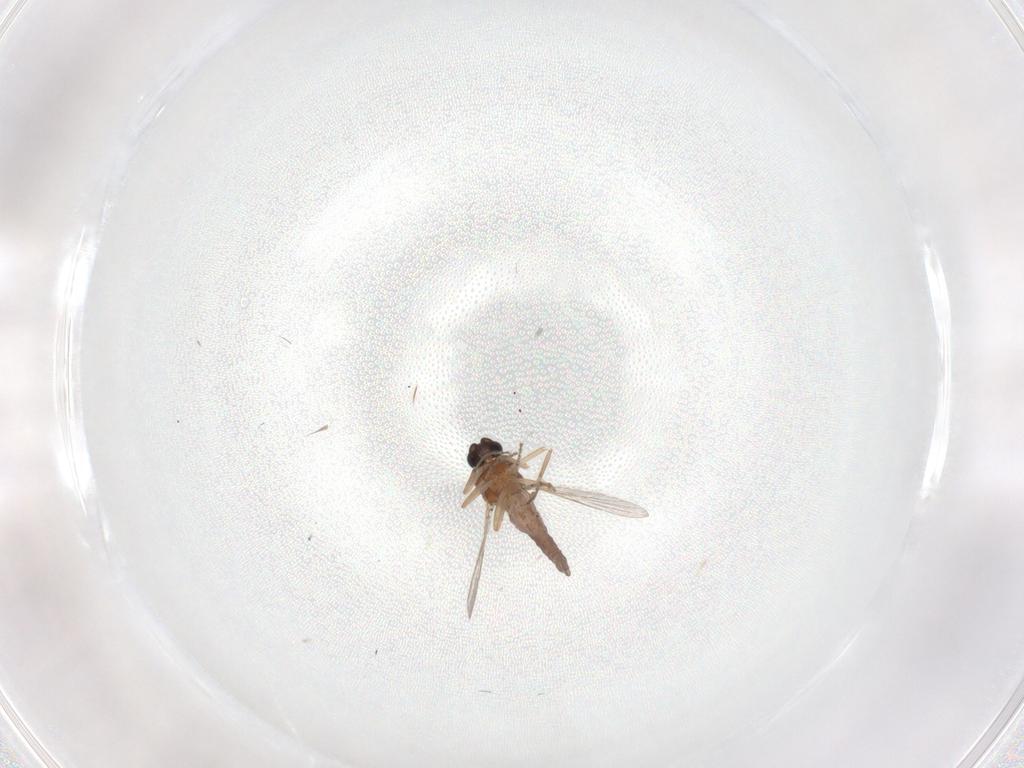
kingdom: Animalia
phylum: Arthropoda
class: Insecta
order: Diptera
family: Ceratopogonidae
